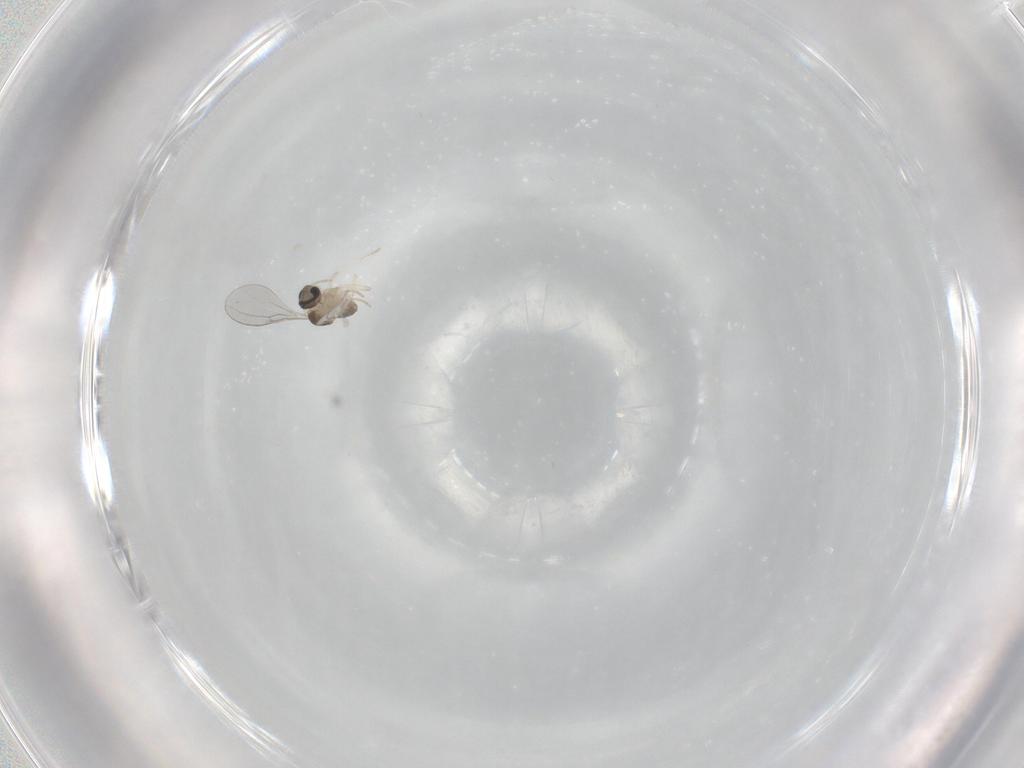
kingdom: Animalia
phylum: Arthropoda
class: Insecta
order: Diptera
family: Cecidomyiidae
